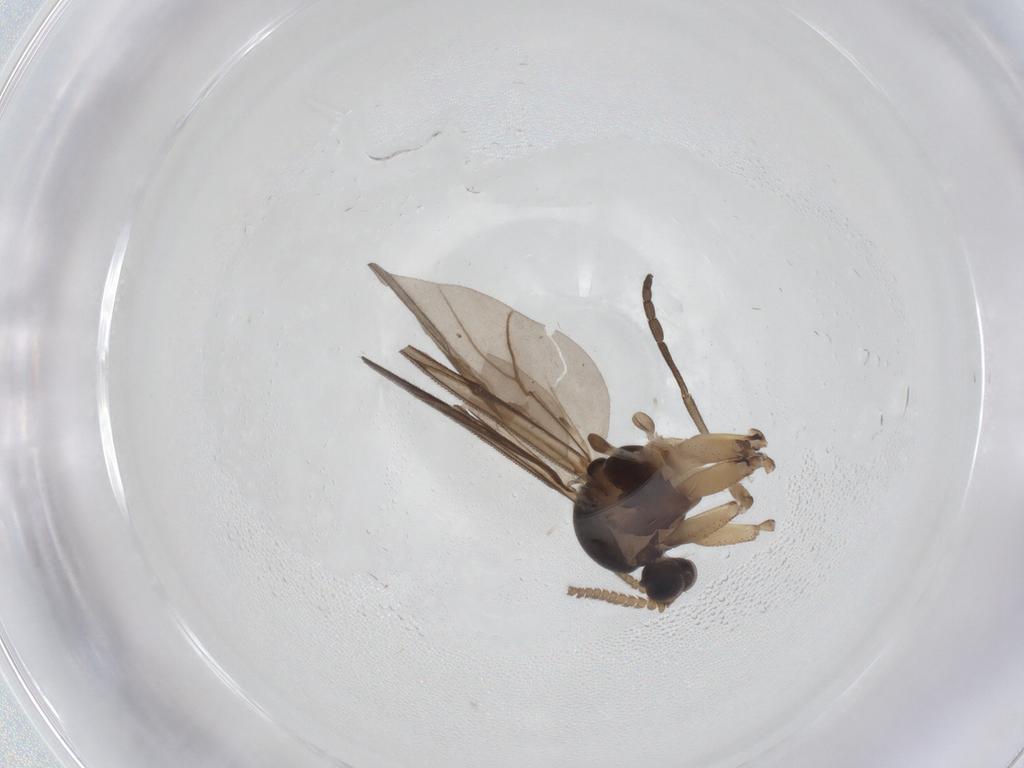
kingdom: Animalia
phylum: Arthropoda
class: Insecta
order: Diptera
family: Mycetophilidae
